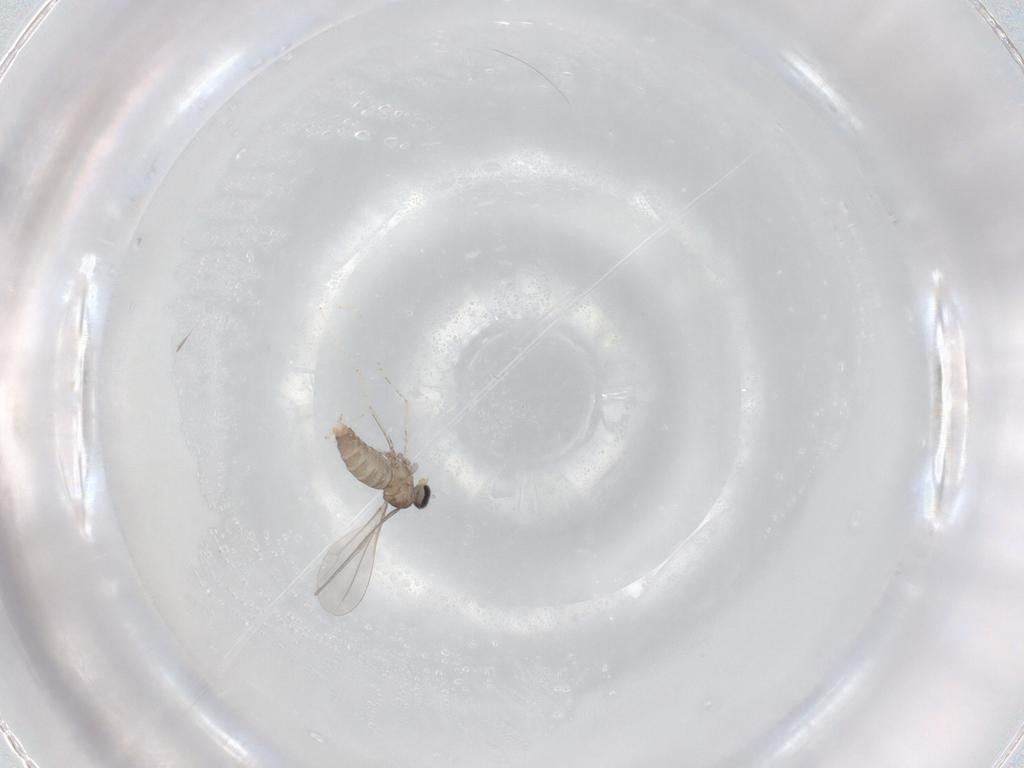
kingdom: Animalia
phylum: Arthropoda
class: Insecta
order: Diptera
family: Cecidomyiidae
